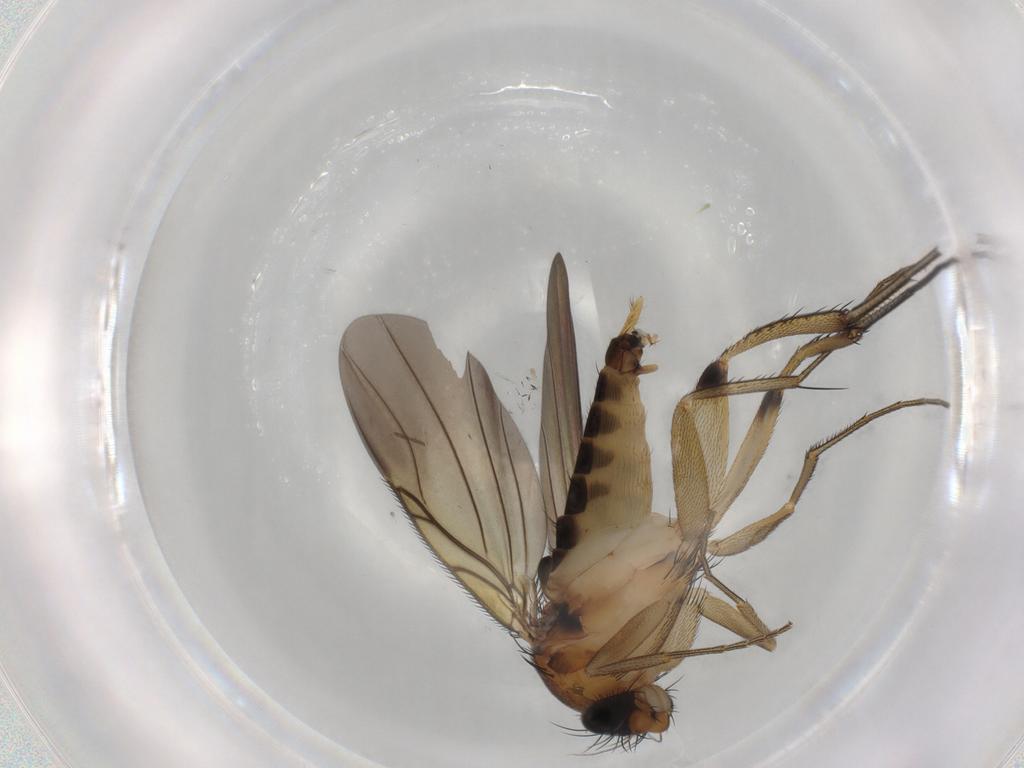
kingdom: Animalia
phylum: Arthropoda
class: Insecta
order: Diptera
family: Phoridae
